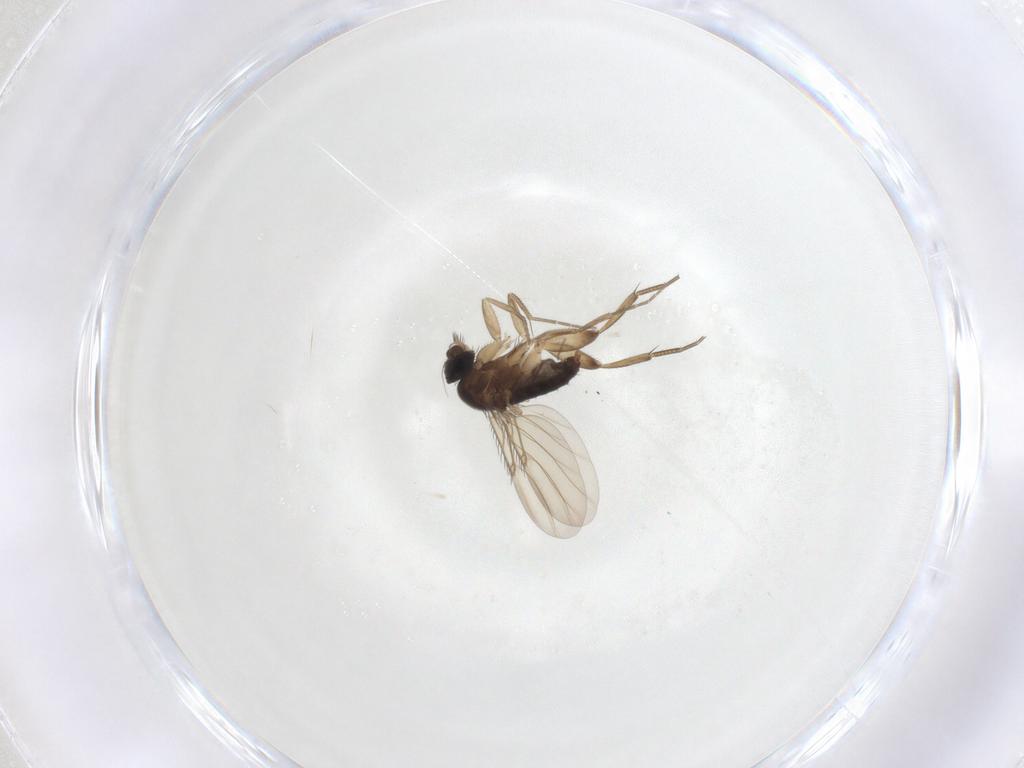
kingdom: Animalia
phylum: Arthropoda
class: Insecta
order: Diptera
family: Phoridae
